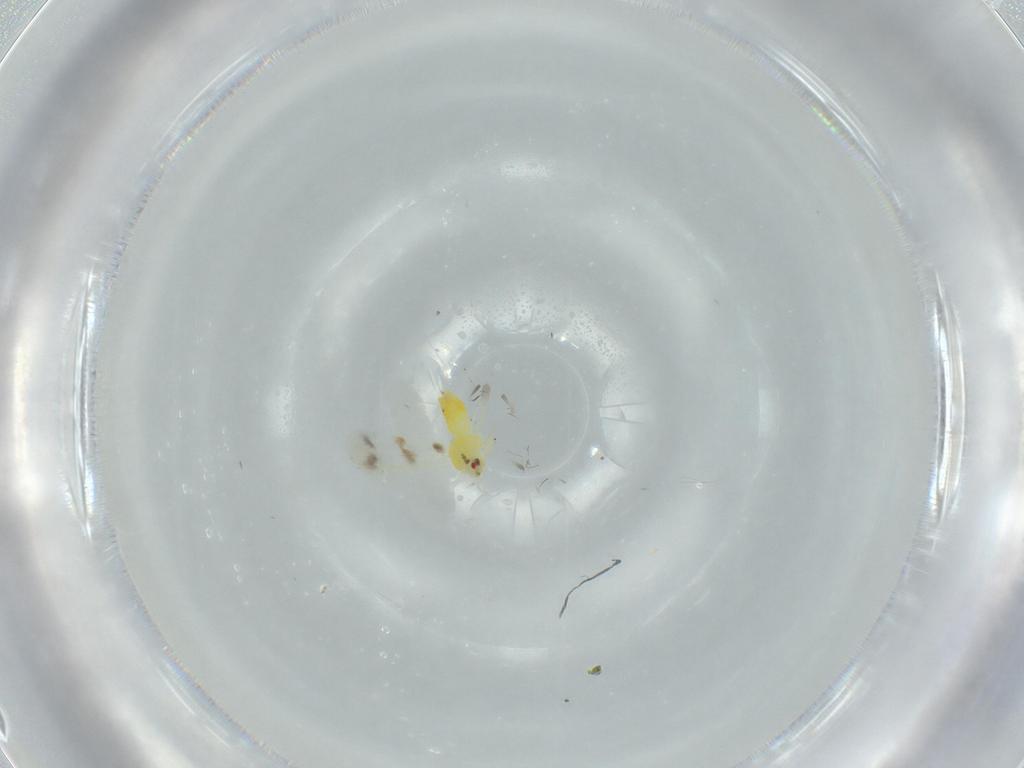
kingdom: Animalia
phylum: Arthropoda
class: Insecta
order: Hemiptera
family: Aleyrodidae
